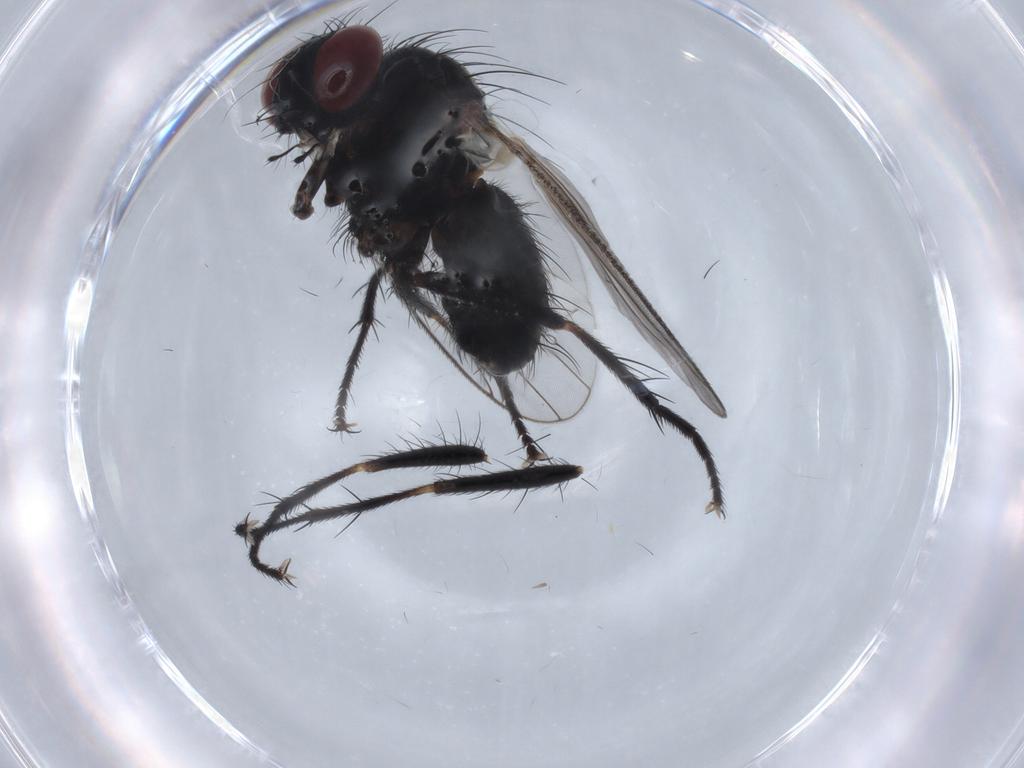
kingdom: Animalia
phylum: Arthropoda
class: Insecta
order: Diptera
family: Muscidae
